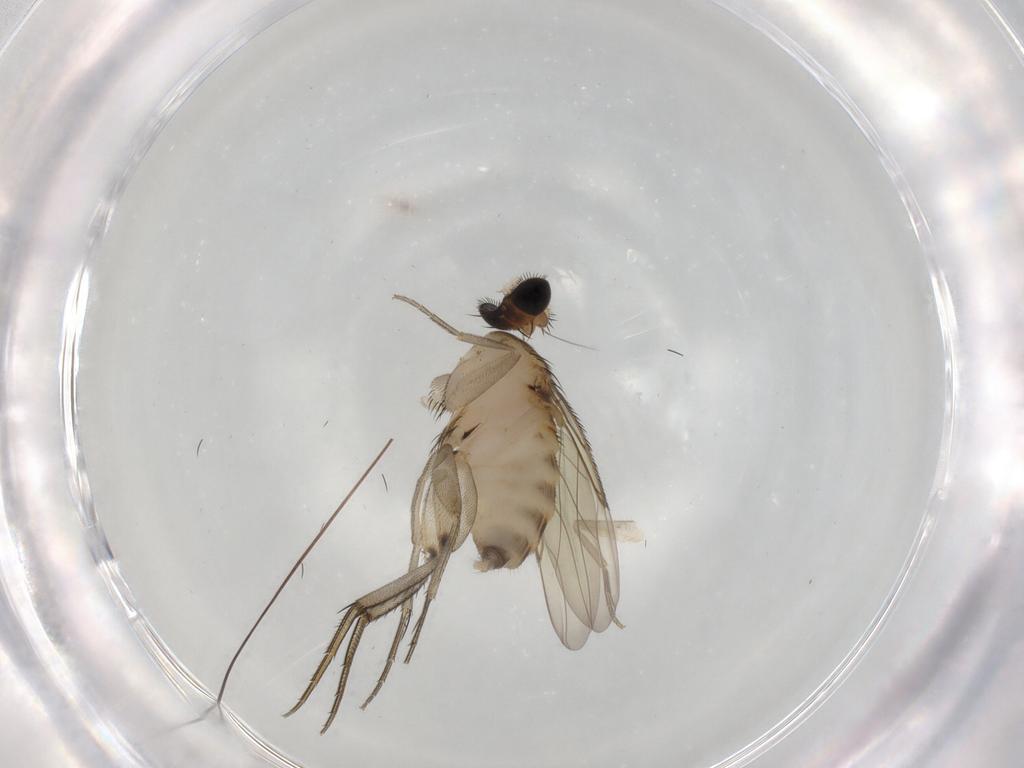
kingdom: Animalia
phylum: Arthropoda
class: Insecta
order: Diptera
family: Phoridae
